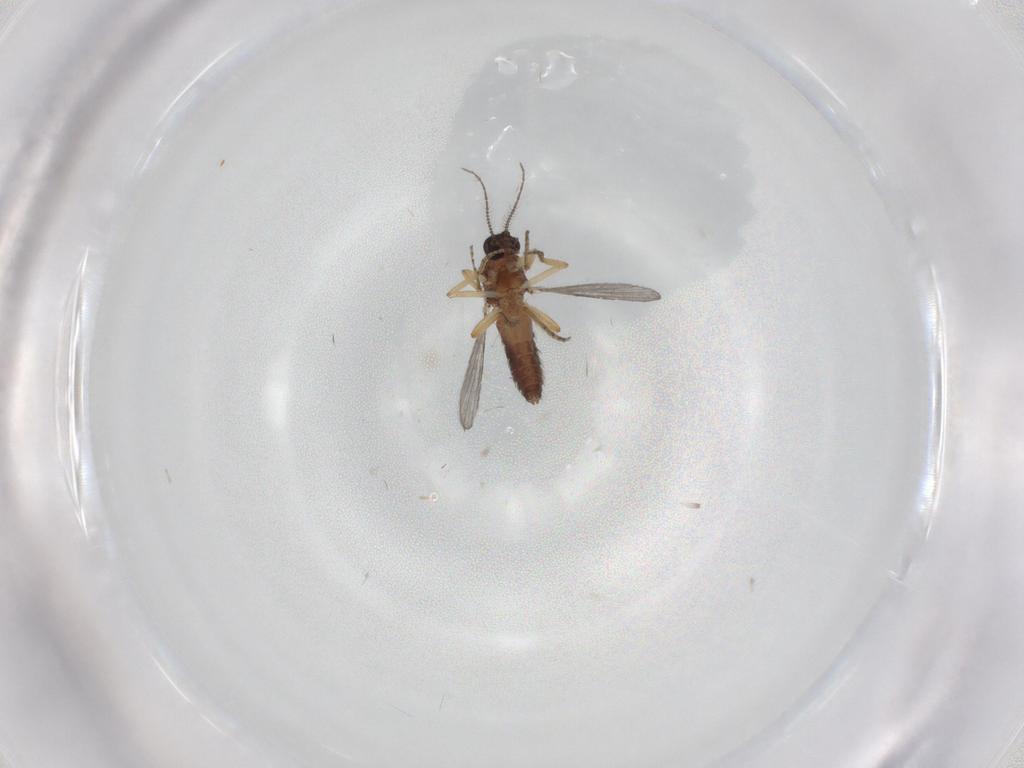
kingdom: Animalia
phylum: Arthropoda
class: Insecta
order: Diptera
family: Ceratopogonidae
